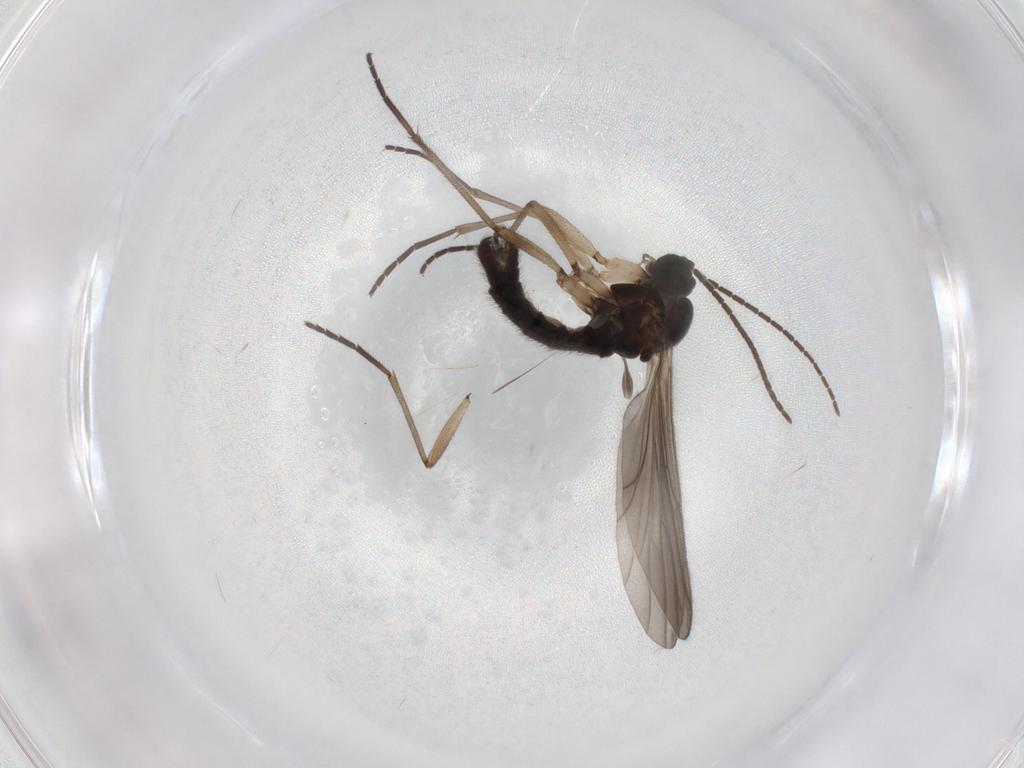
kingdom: Animalia
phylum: Arthropoda
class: Insecta
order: Diptera
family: Sciaridae
